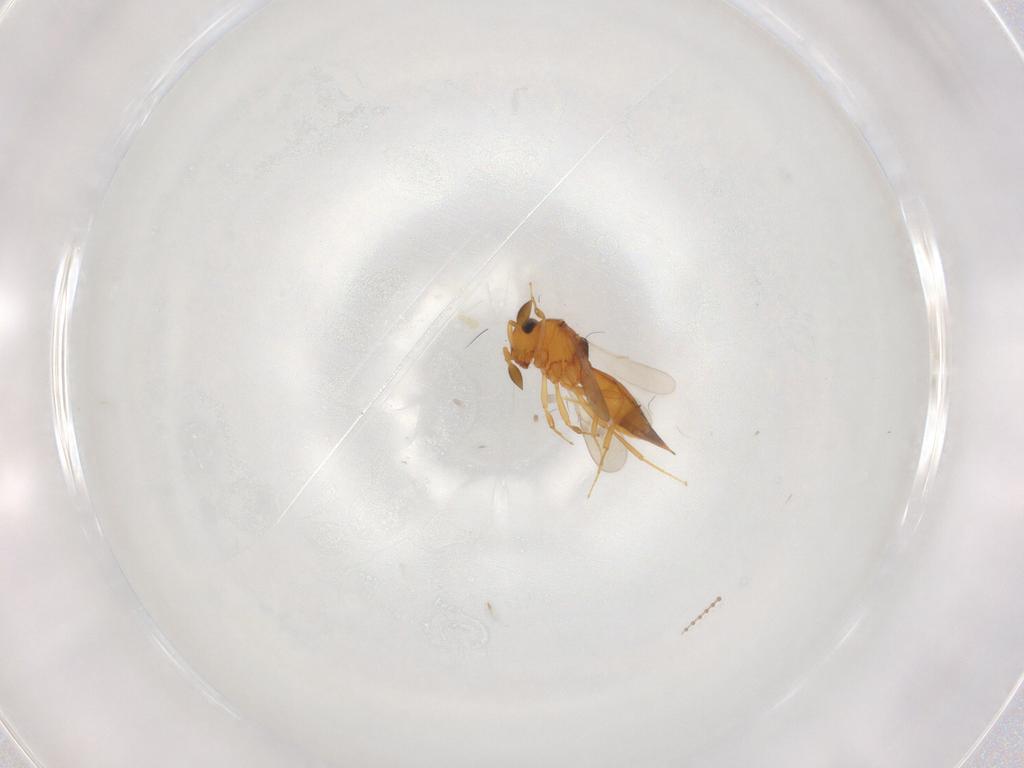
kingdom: Animalia
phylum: Arthropoda
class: Insecta
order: Hymenoptera
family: Scelionidae
